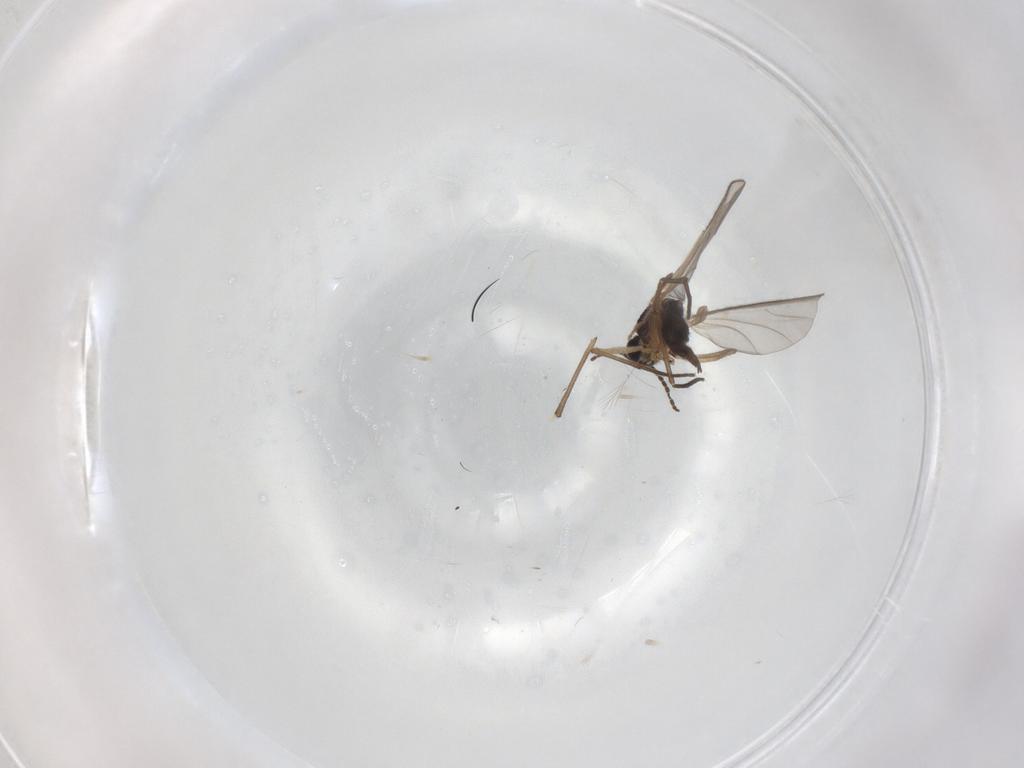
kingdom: Animalia
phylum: Arthropoda
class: Insecta
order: Diptera
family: Sciaridae
